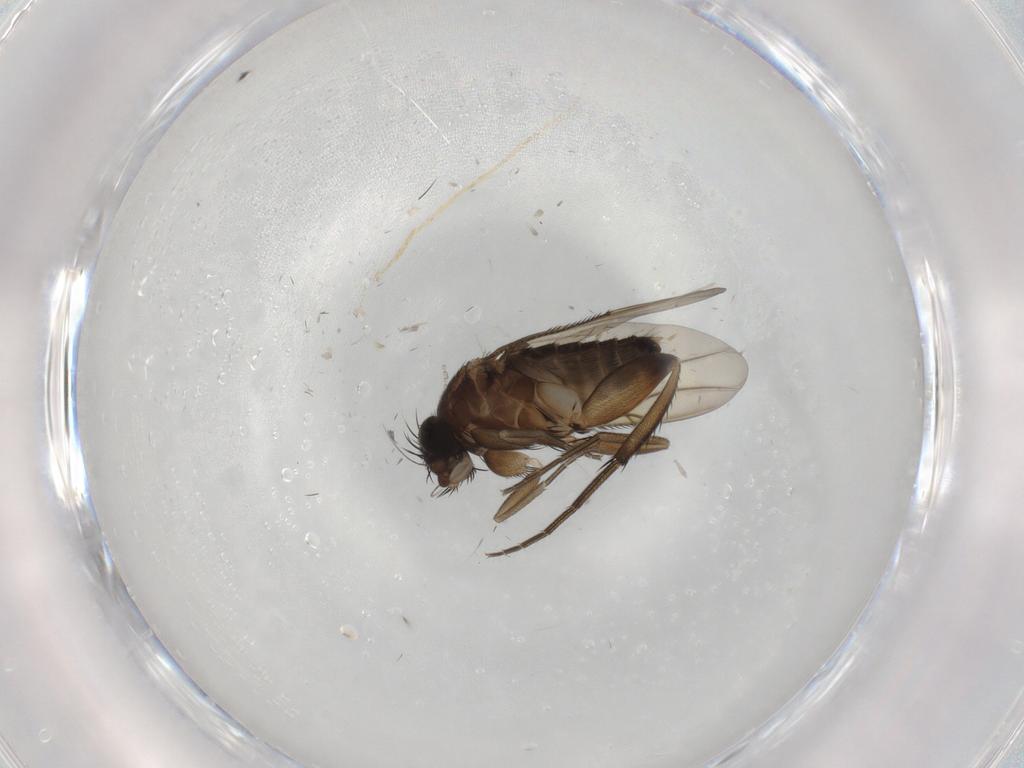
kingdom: Animalia
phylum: Arthropoda
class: Insecta
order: Diptera
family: Phoridae
